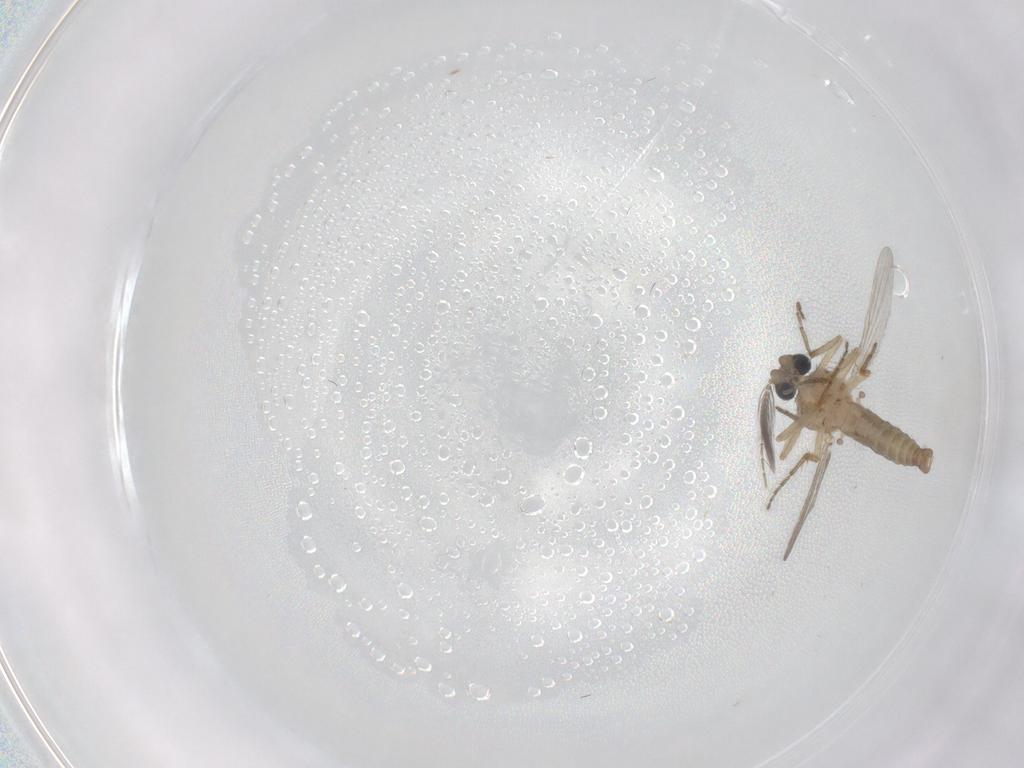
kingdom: Animalia
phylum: Arthropoda
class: Insecta
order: Diptera
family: Ceratopogonidae
